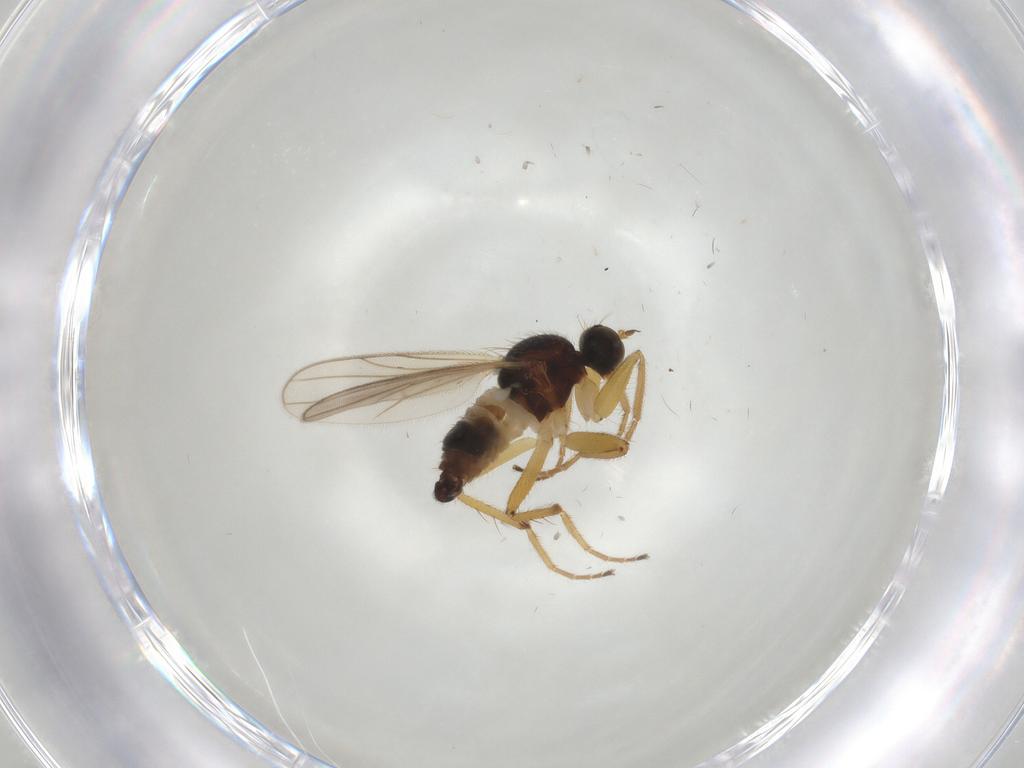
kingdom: Animalia
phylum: Arthropoda
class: Insecta
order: Diptera
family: Hybotidae
